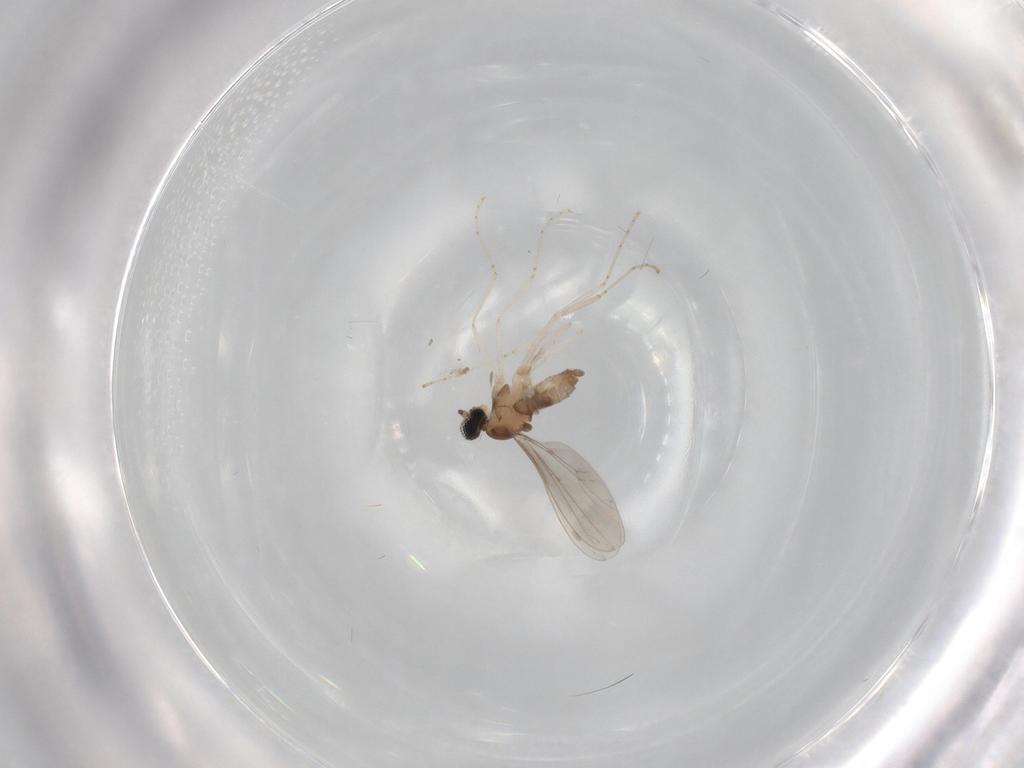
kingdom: Animalia
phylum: Arthropoda
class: Insecta
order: Diptera
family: Cecidomyiidae
